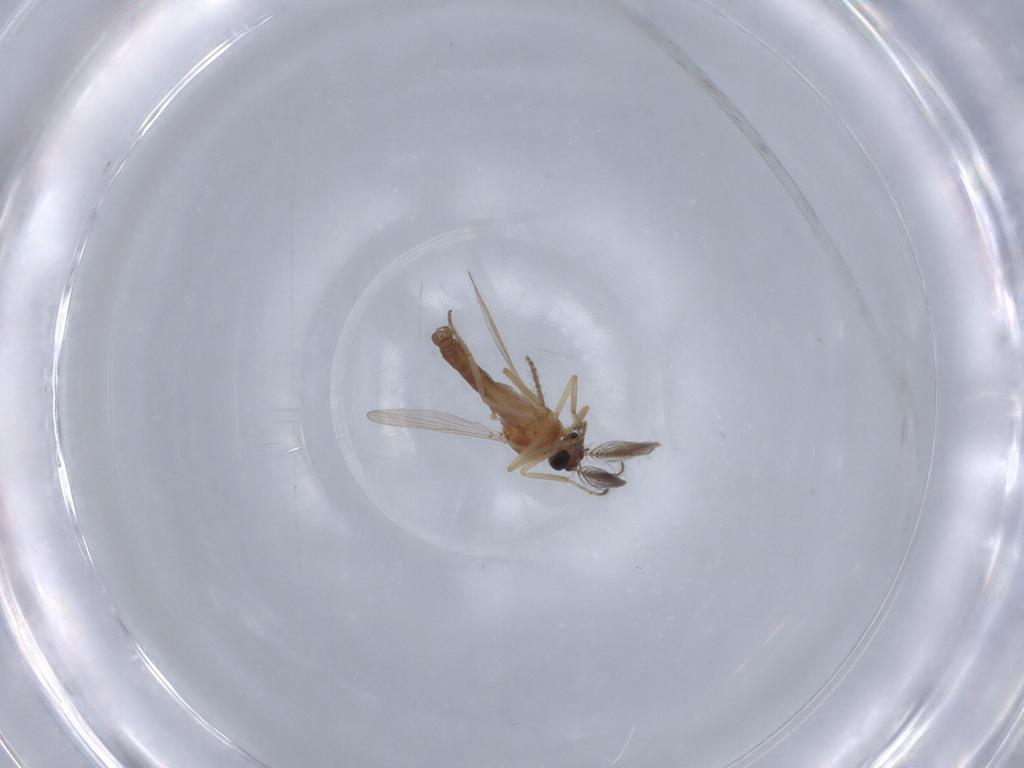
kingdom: Animalia
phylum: Arthropoda
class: Insecta
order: Diptera
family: Ceratopogonidae
